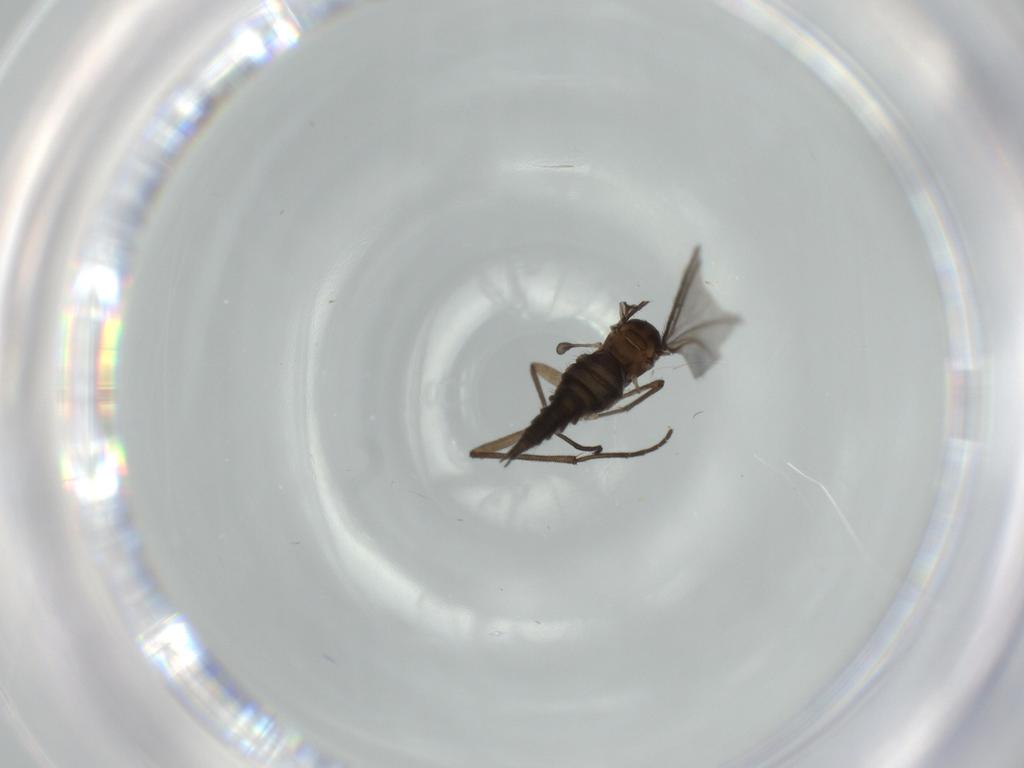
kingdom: Animalia
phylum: Arthropoda
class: Insecta
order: Diptera
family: Sciaridae
